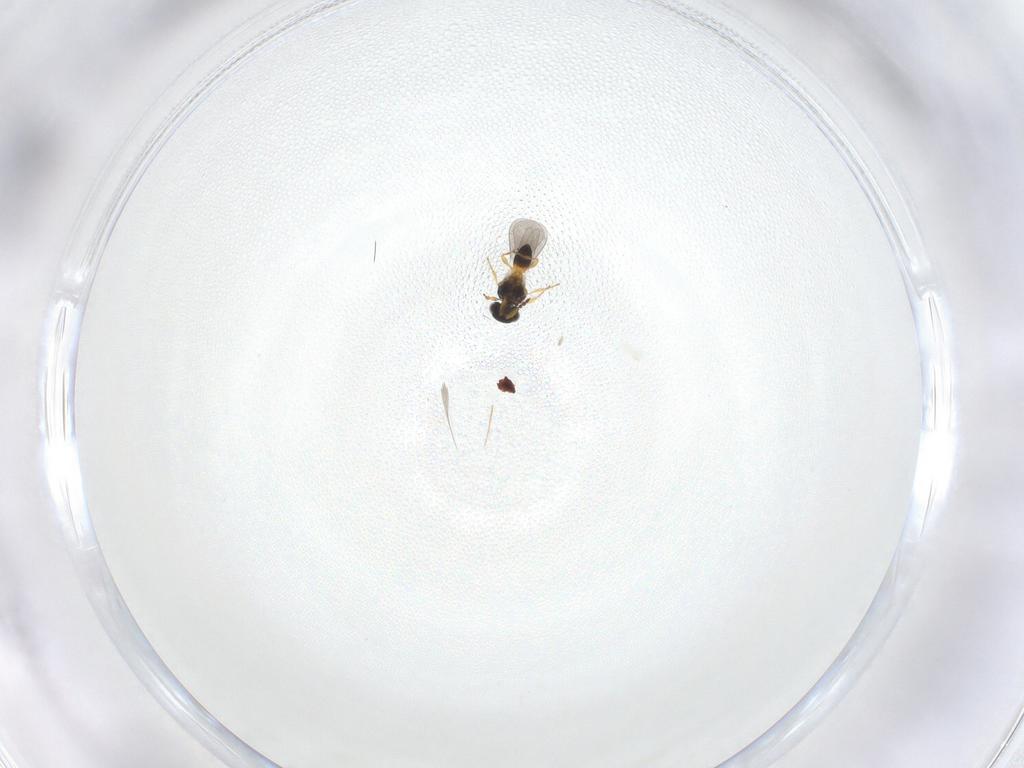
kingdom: Animalia
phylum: Arthropoda
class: Insecta
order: Hymenoptera
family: Platygastridae
